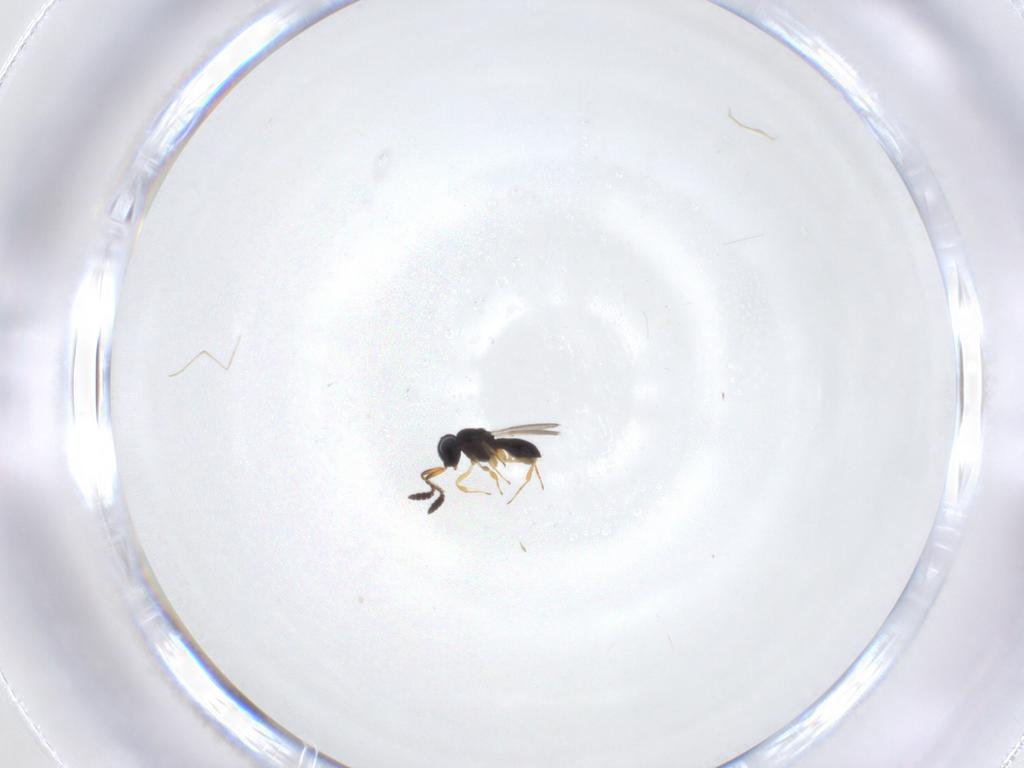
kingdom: Animalia
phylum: Arthropoda
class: Insecta
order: Hymenoptera
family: Scelionidae
